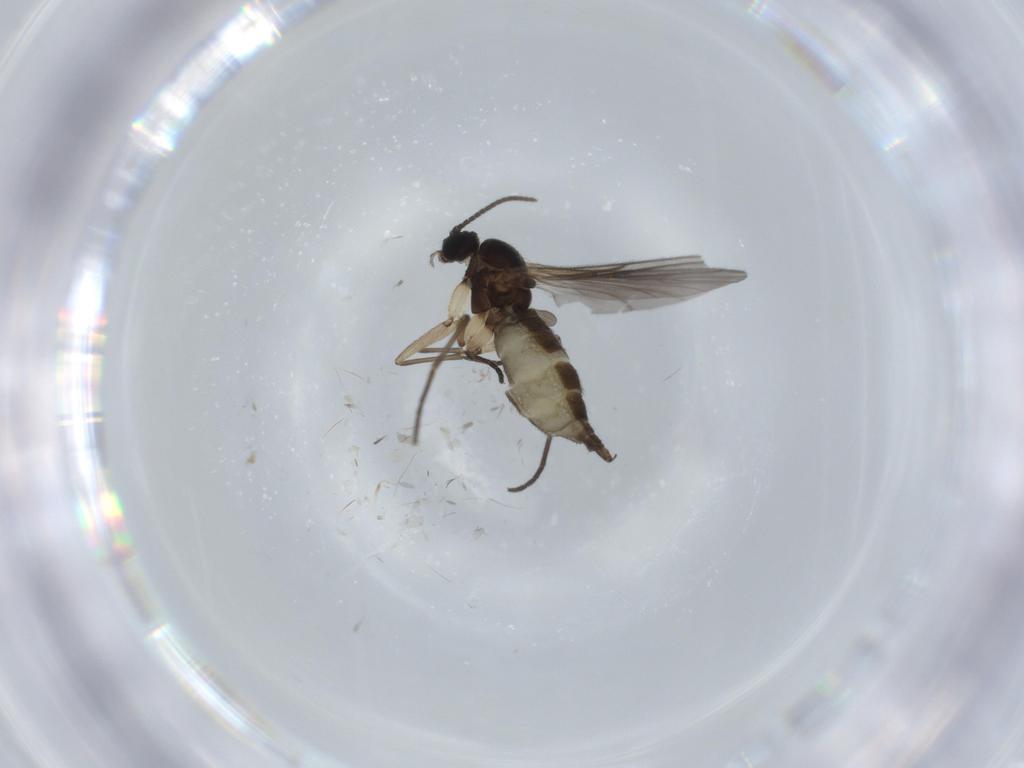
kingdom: Animalia
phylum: Arthropoda
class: Insecta
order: Diptera
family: Sciaridae
